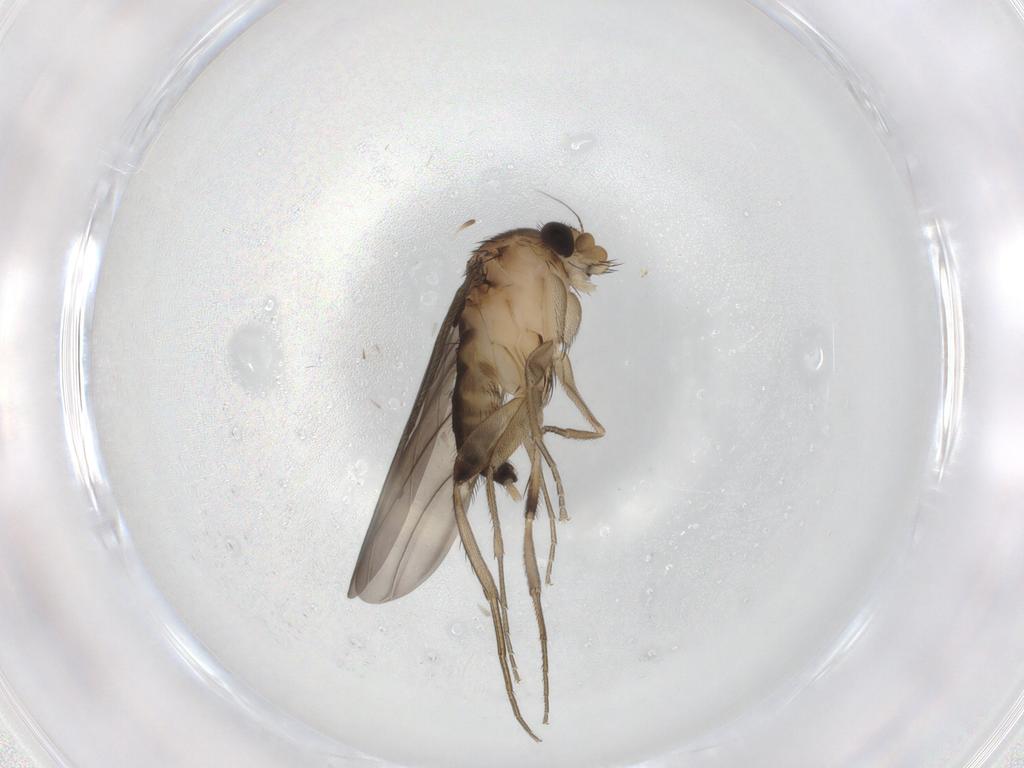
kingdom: Animalia
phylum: Arthropoda
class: Insecta
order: Diptera
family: Phoridae
